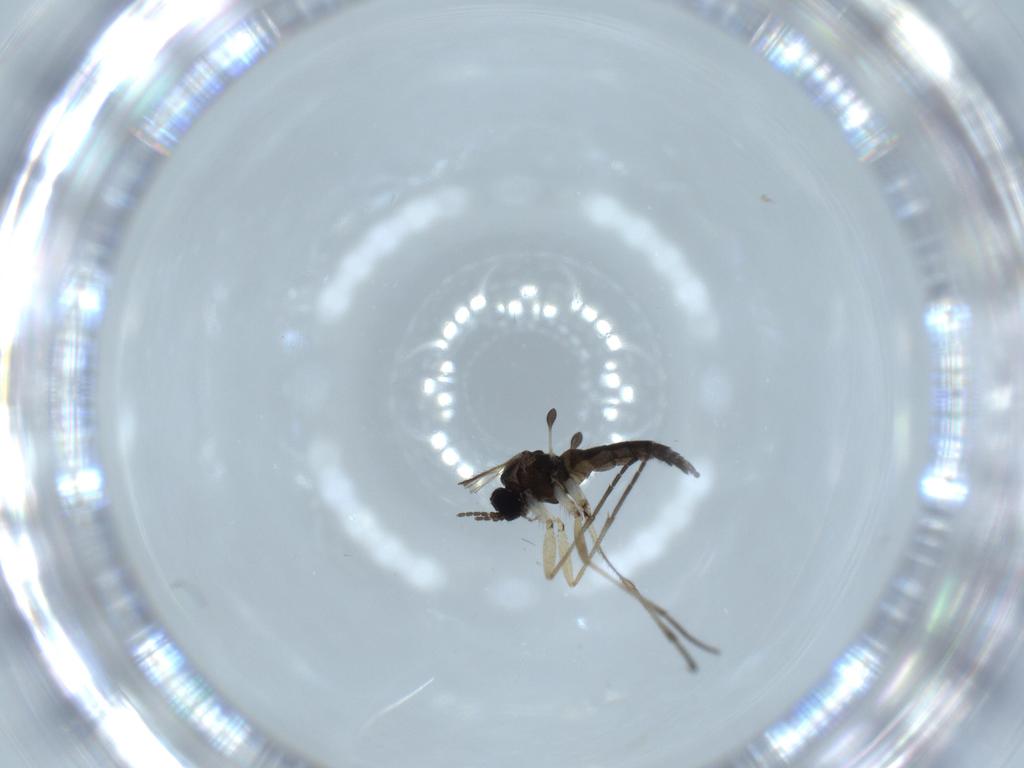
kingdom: Animalia
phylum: Arthropoda
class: Insecta
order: Diptera
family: Sciaridae
